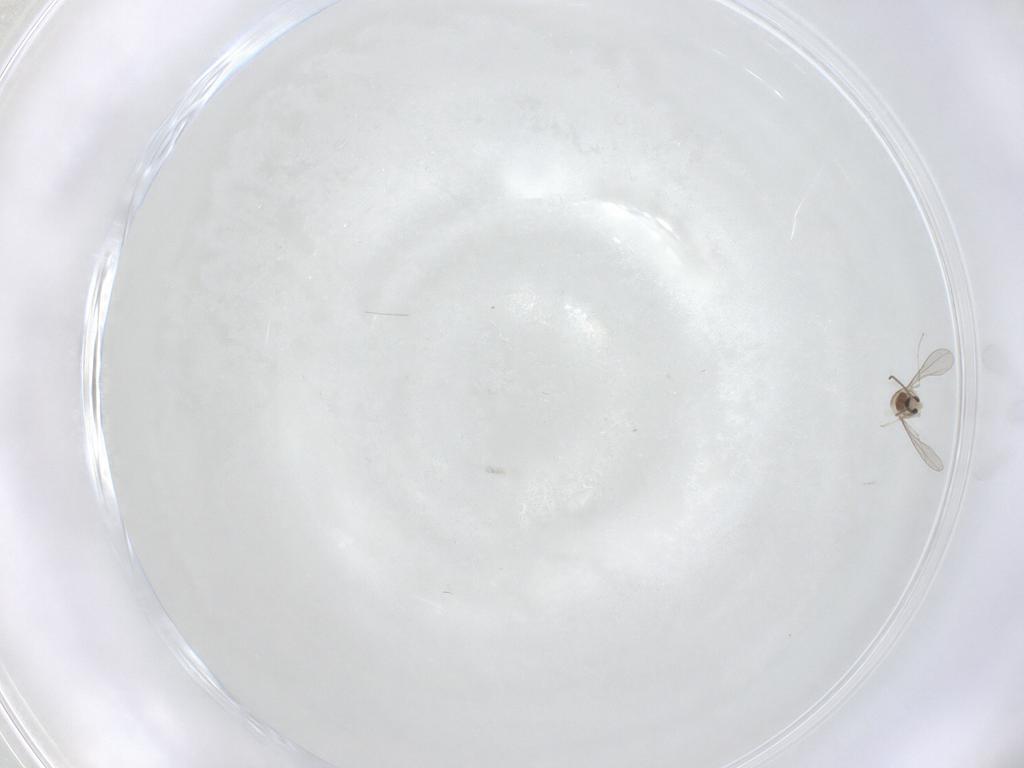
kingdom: Animalia
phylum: Arthropoda
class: Insecta
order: Diptera
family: Cecidomyiidae
